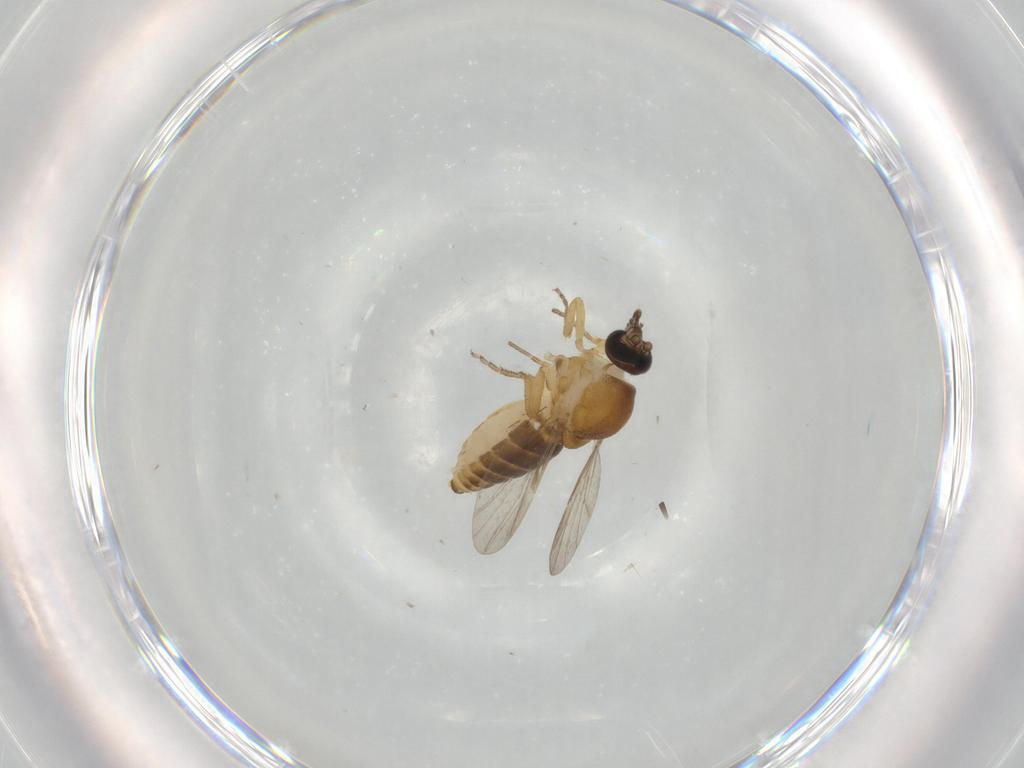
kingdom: Animalia
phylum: Arthropoda
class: Insecta
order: Diptera
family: Ceratopogonidae
